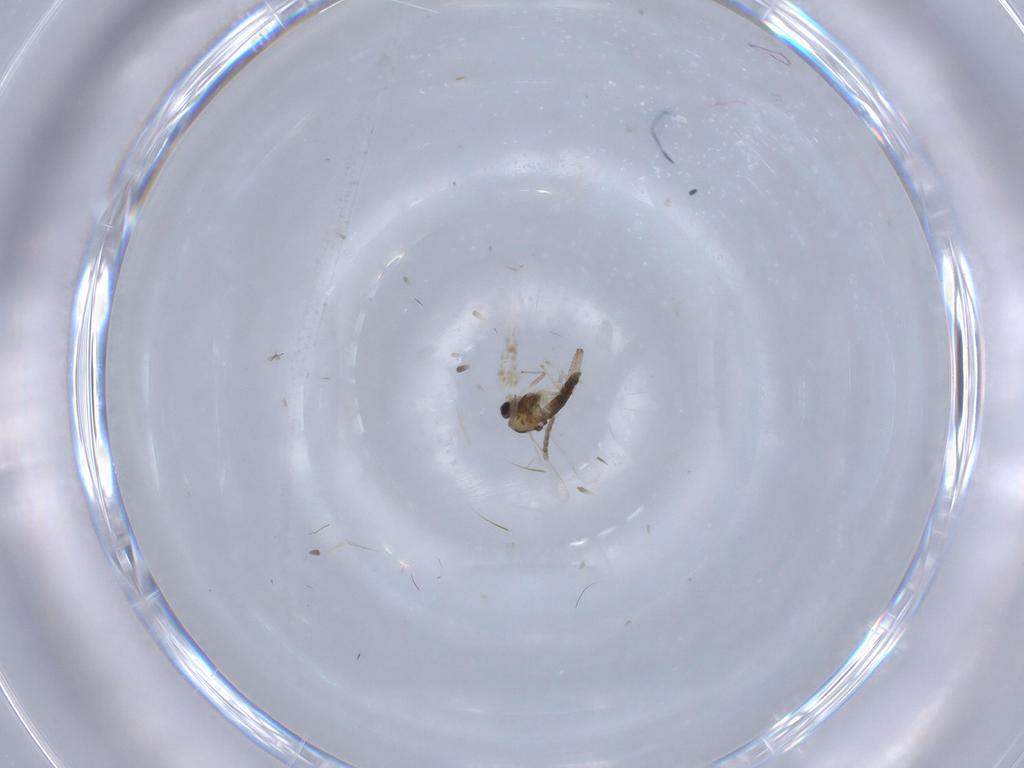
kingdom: Animalia
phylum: Arthropoda
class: Insecta
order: Diptera
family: Chironomidae
